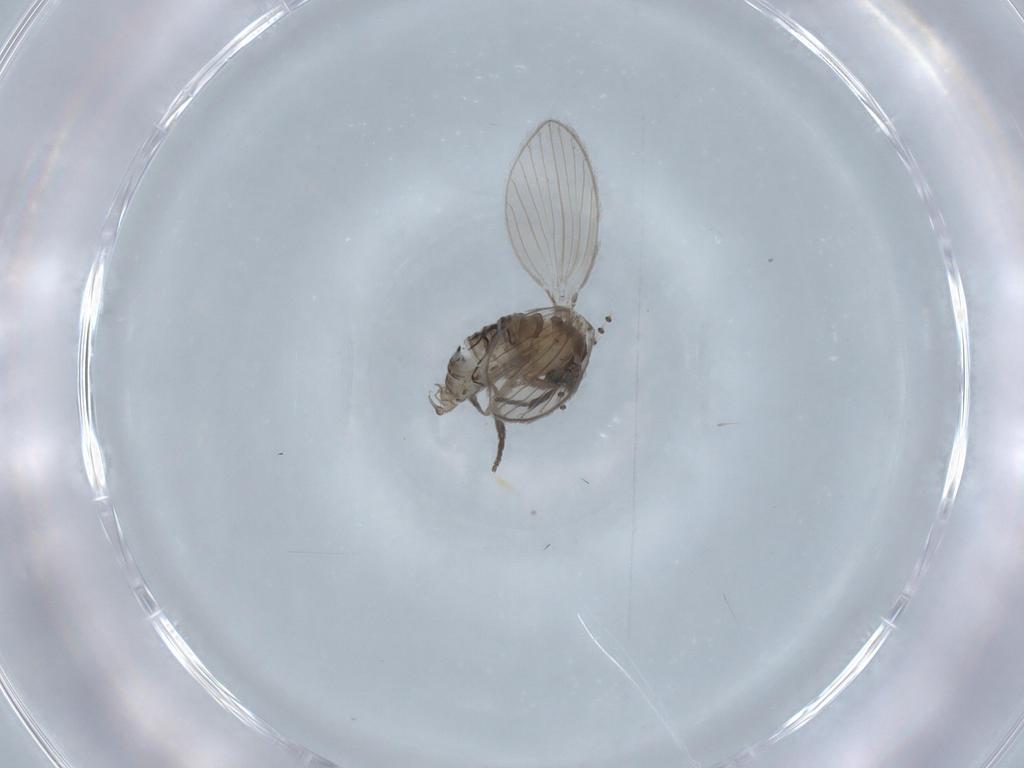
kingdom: Animalia
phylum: Arthropoda
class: Insecta
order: Diptera
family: Psychodidae
